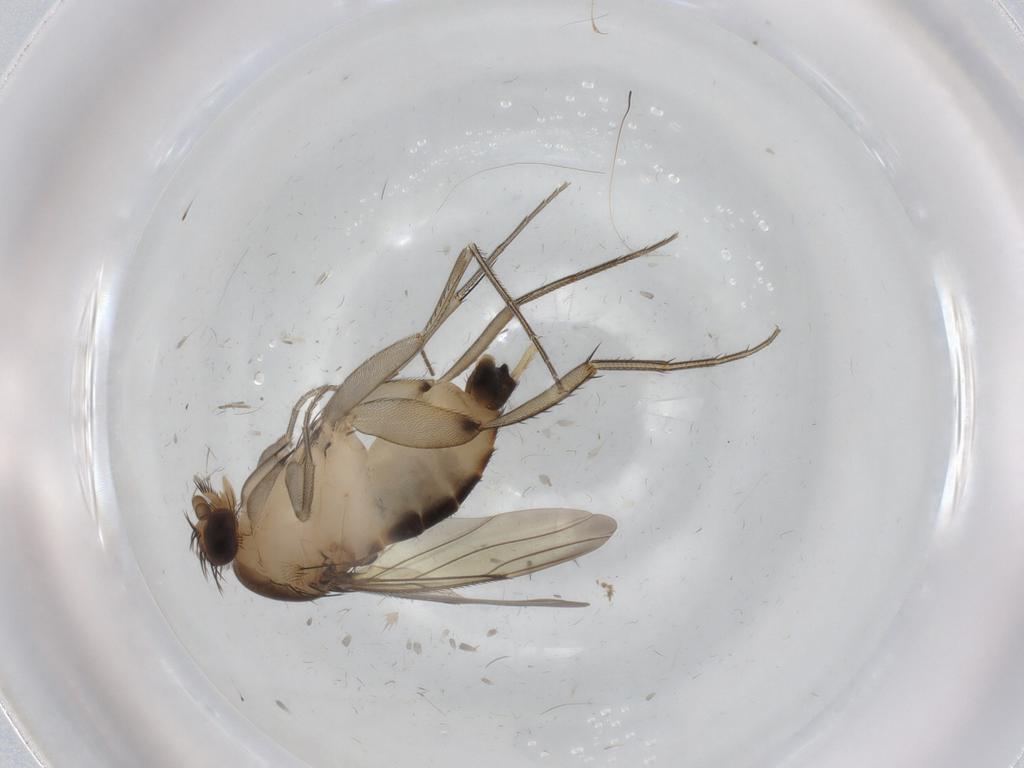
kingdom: Animalia
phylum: Arthropoda
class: Insecta
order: Diptera
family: Phoridae
